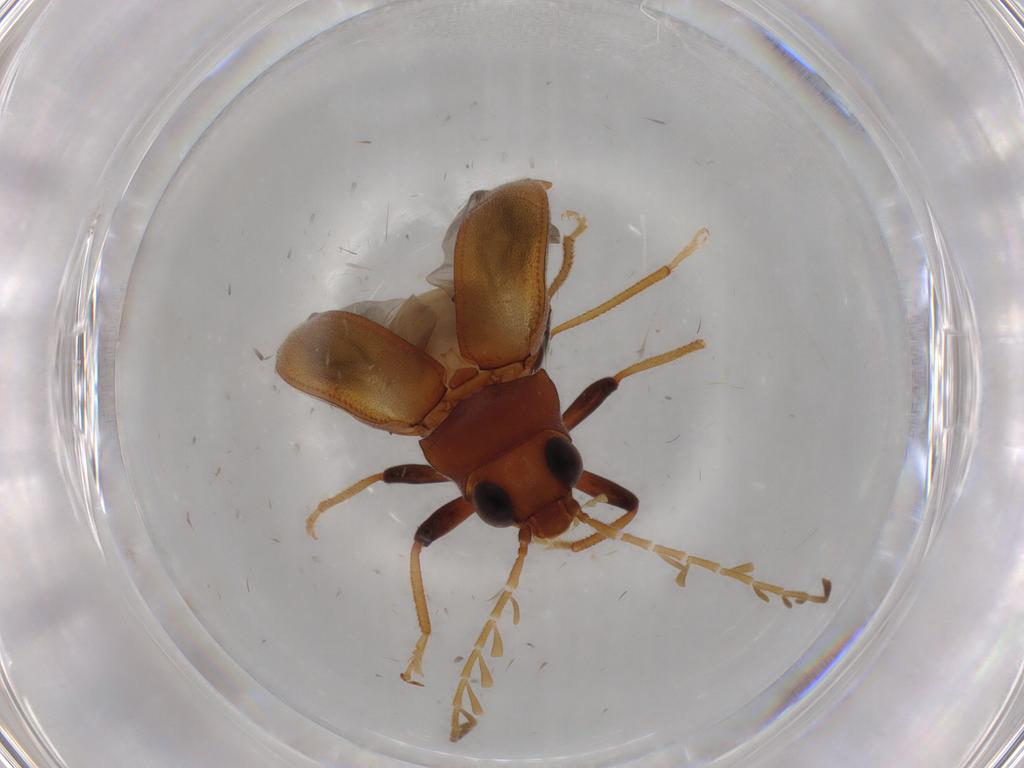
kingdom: Animalia
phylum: Arthropoda
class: Insecta
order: Coleoptera
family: Ptilodactylidae
